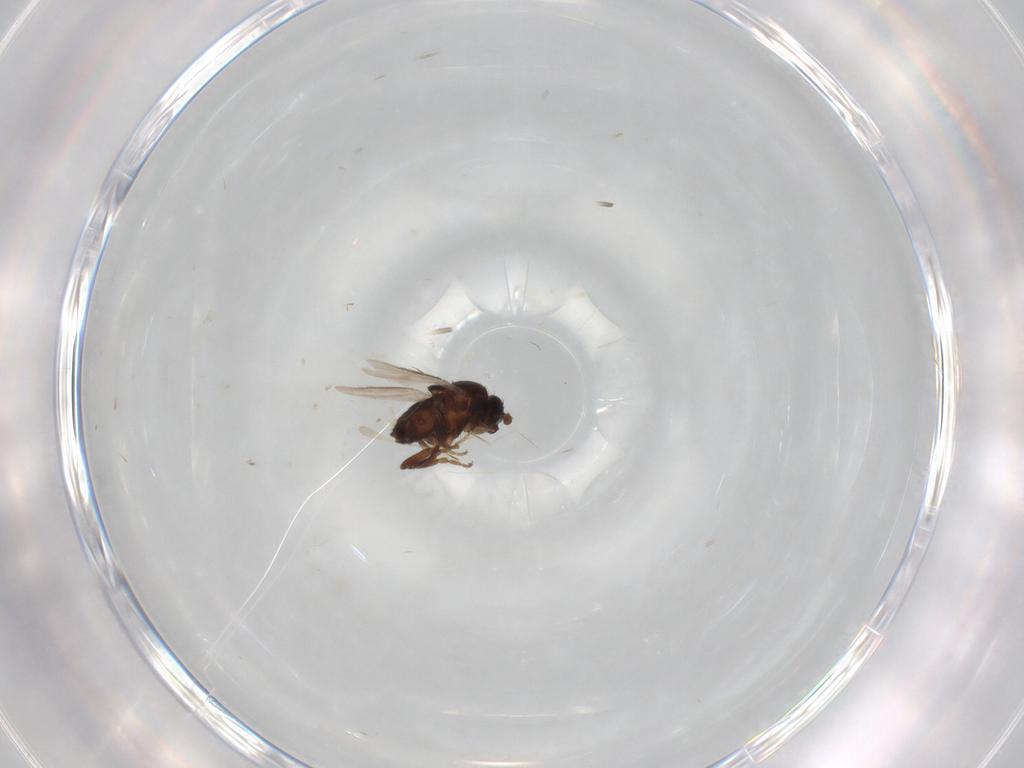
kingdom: Animalia
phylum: Arthropoda
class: Insecta
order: Diptera
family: Sphaeroceridae
